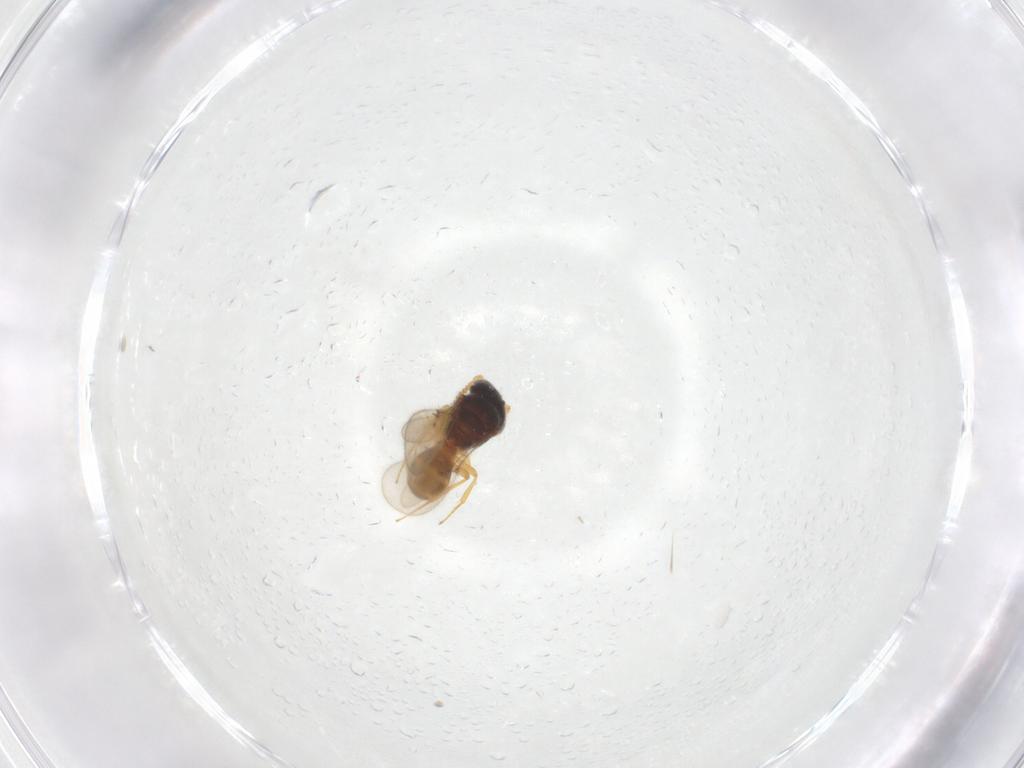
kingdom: Animalia
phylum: Arthropoda
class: Insecta
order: Hymenoptera
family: Scelionidae
